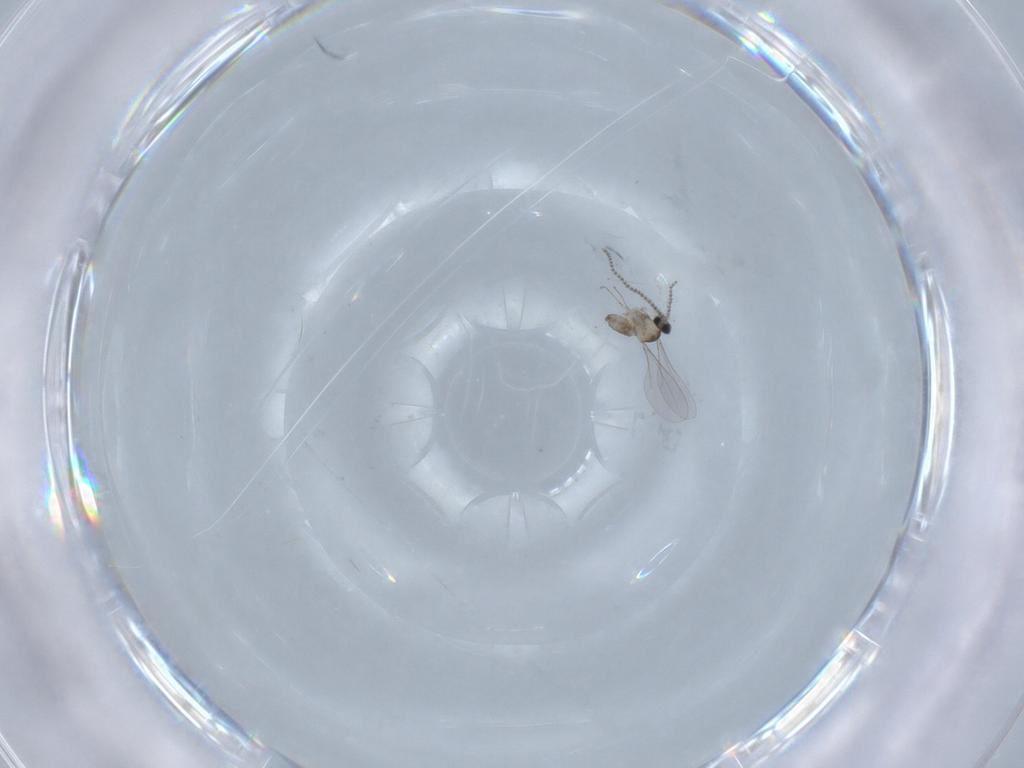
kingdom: Animalia
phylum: Arthropoda
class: Insecta
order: Diptera
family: Cecidomyiidae
